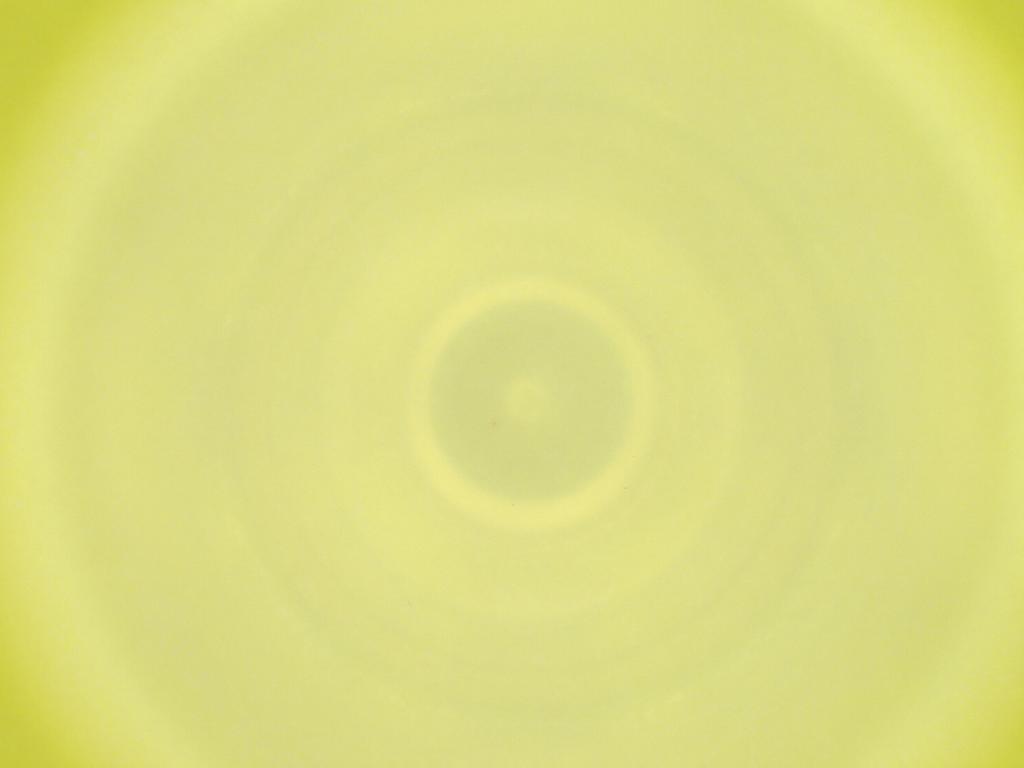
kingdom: Animalia
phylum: Arthropoda
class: Insecta
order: Diptera
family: Cecidomyiidae
